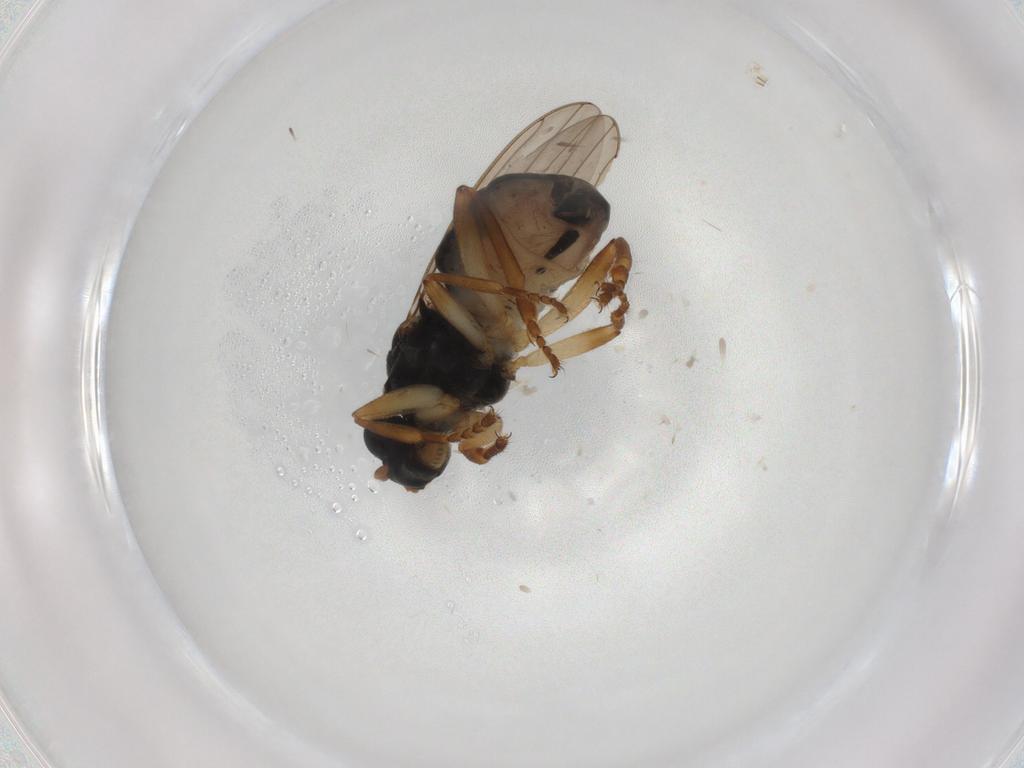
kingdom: Animalia
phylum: Arthropoda
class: Insecta
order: Diptera
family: Sphaeroceridae
